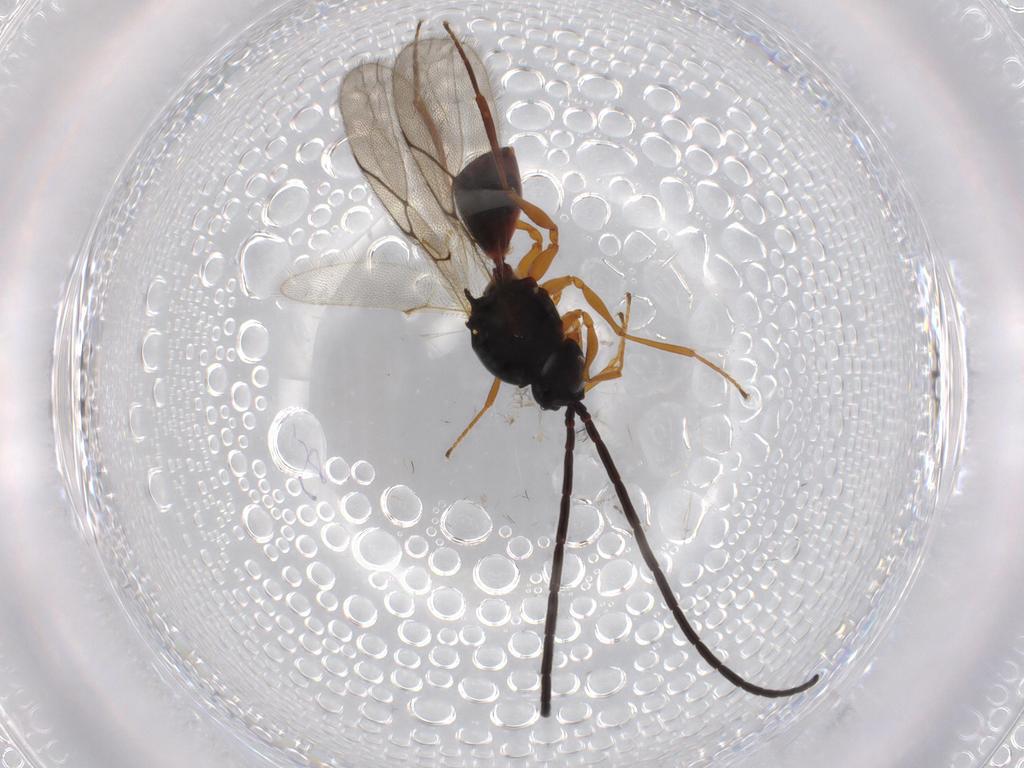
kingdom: Animalia
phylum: Arthropoda
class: Insecta
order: Hymenoptera
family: Figitidae
